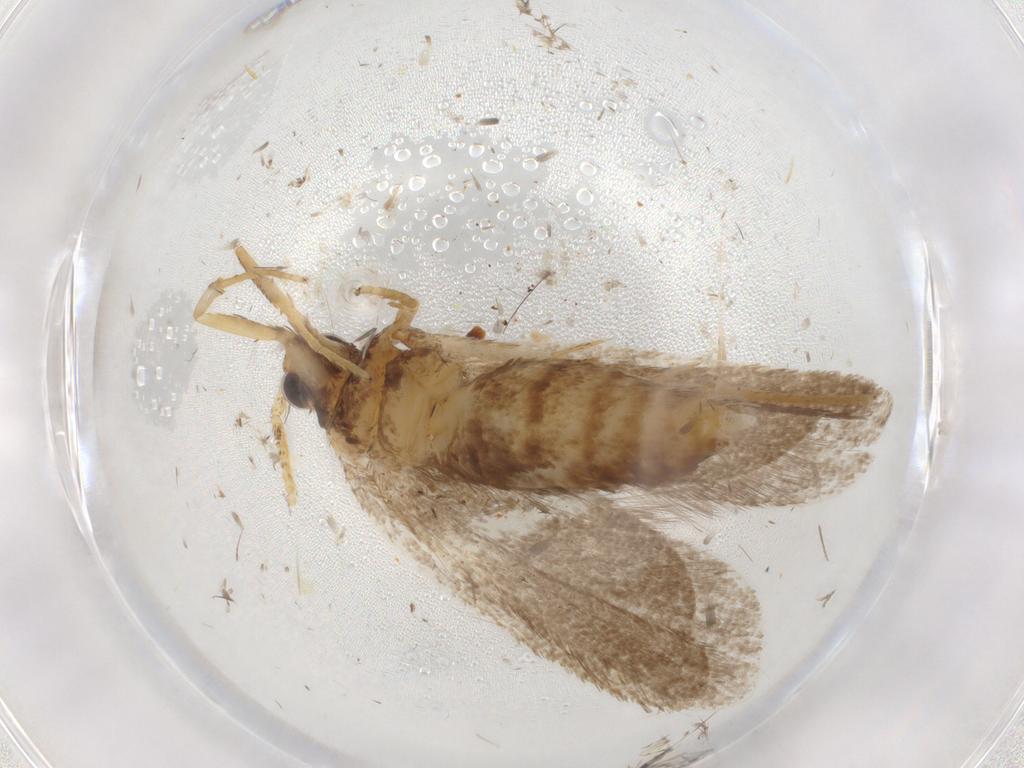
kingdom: Animalia
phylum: Arthropoda
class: Insecta
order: Lepidoptera
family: Lecithoceridae
